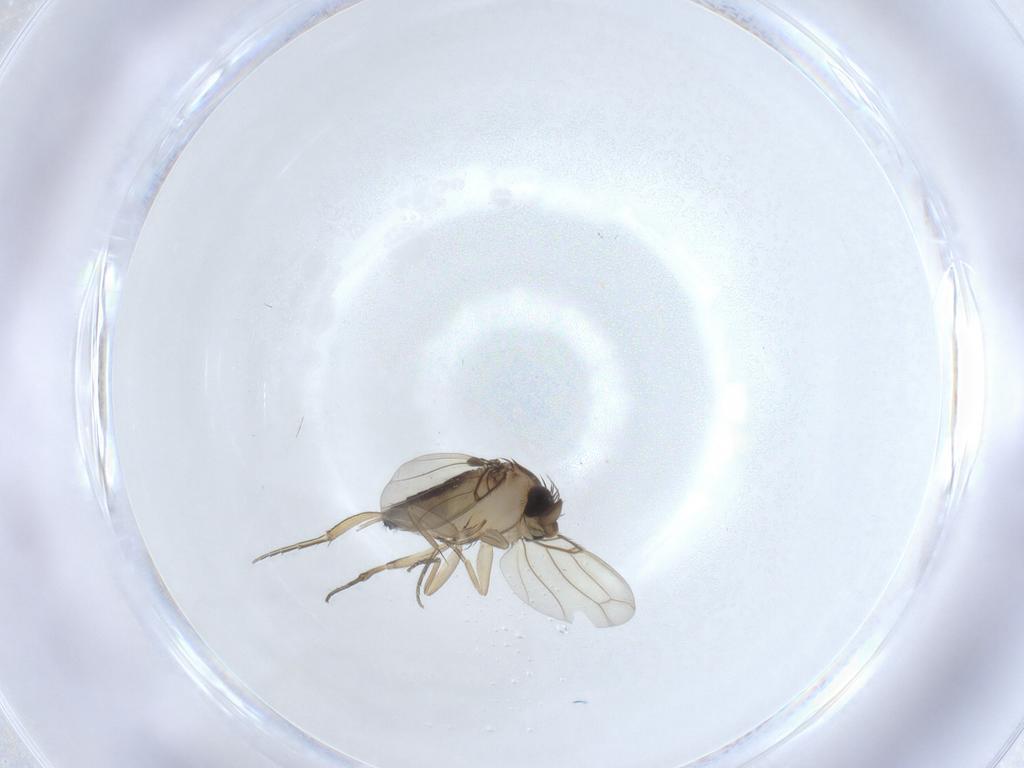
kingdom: Animalia
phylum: Arthropoda
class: Insecta
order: Diptera
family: Phoridae
